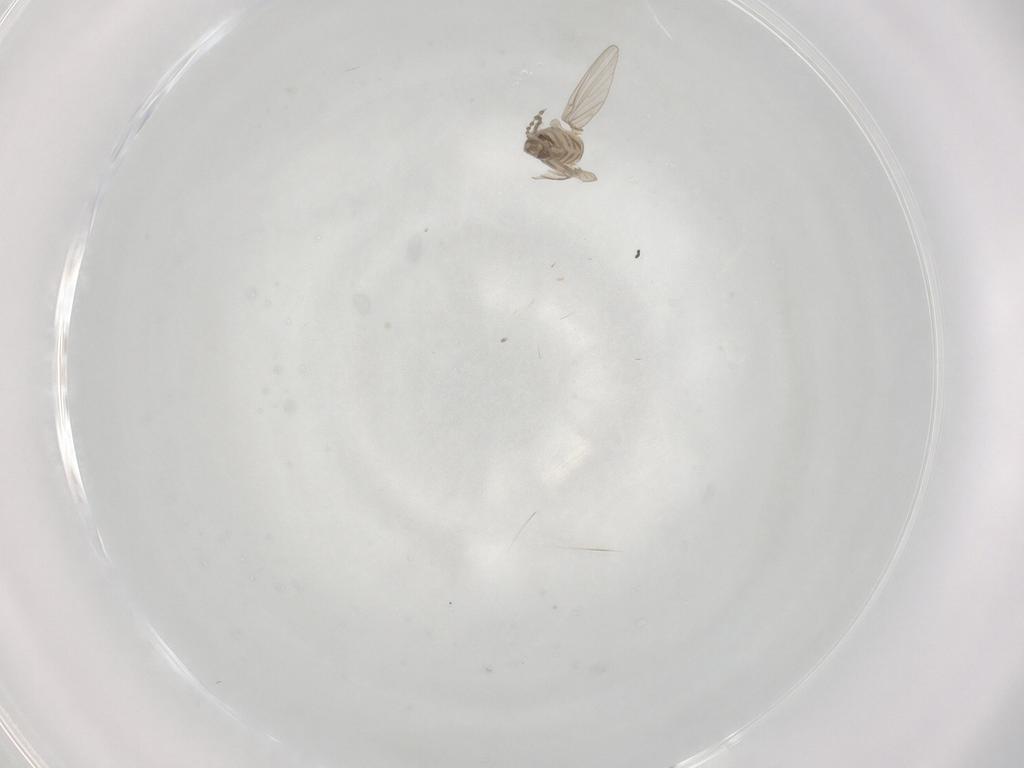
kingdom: Animalia
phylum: Arthropoda
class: Insecta
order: Diptera
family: Psychodidae
